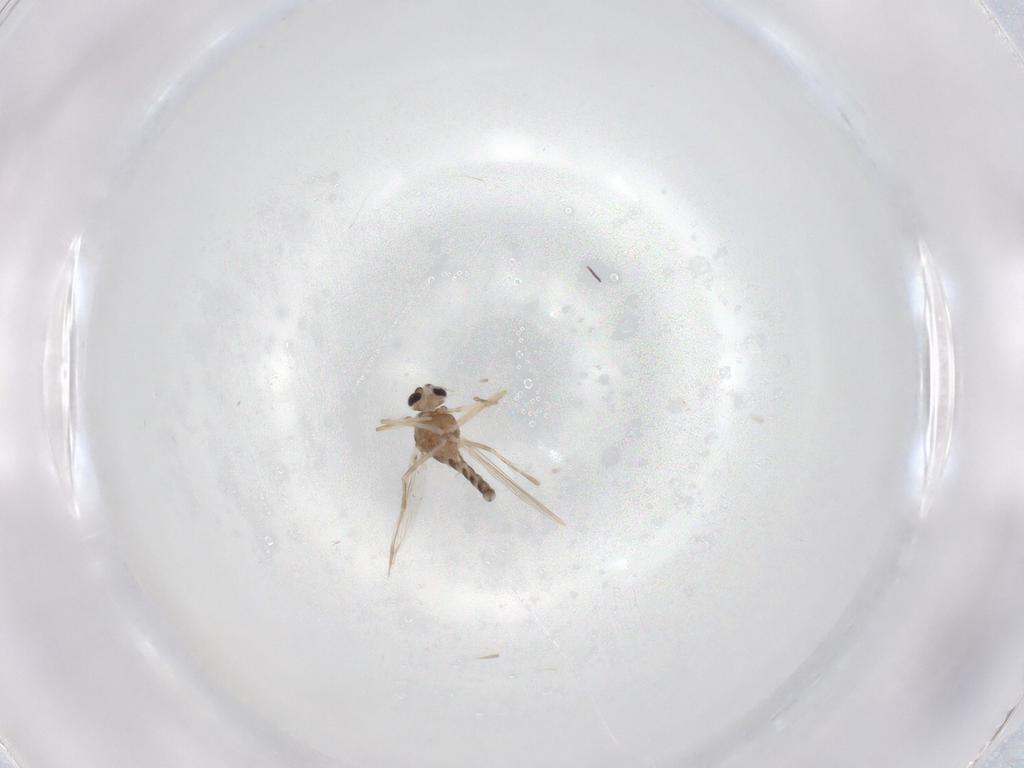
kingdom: Animalia
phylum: Arthropoda
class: Insecta
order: Diptera
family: Chironomidae
